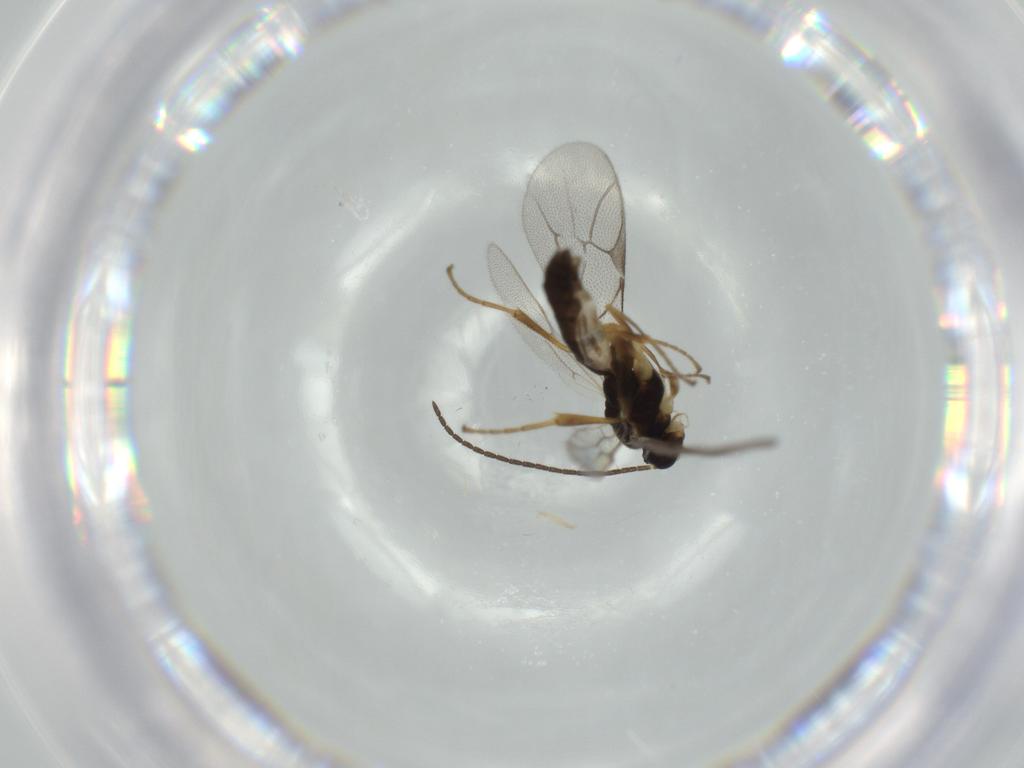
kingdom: Animalia
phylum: Arthropoda
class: Insecta
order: Hymenoptera
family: Ichneumonidae
